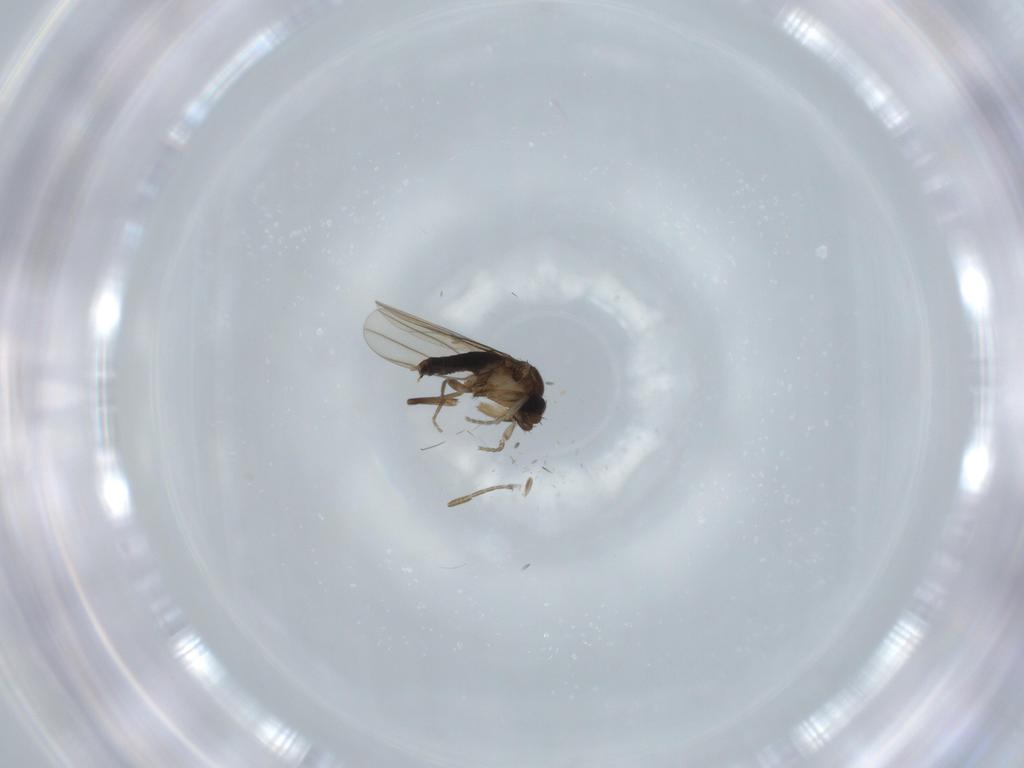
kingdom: Animalia
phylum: Arthropoda
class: Insecta
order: Diptera
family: Phoridae
